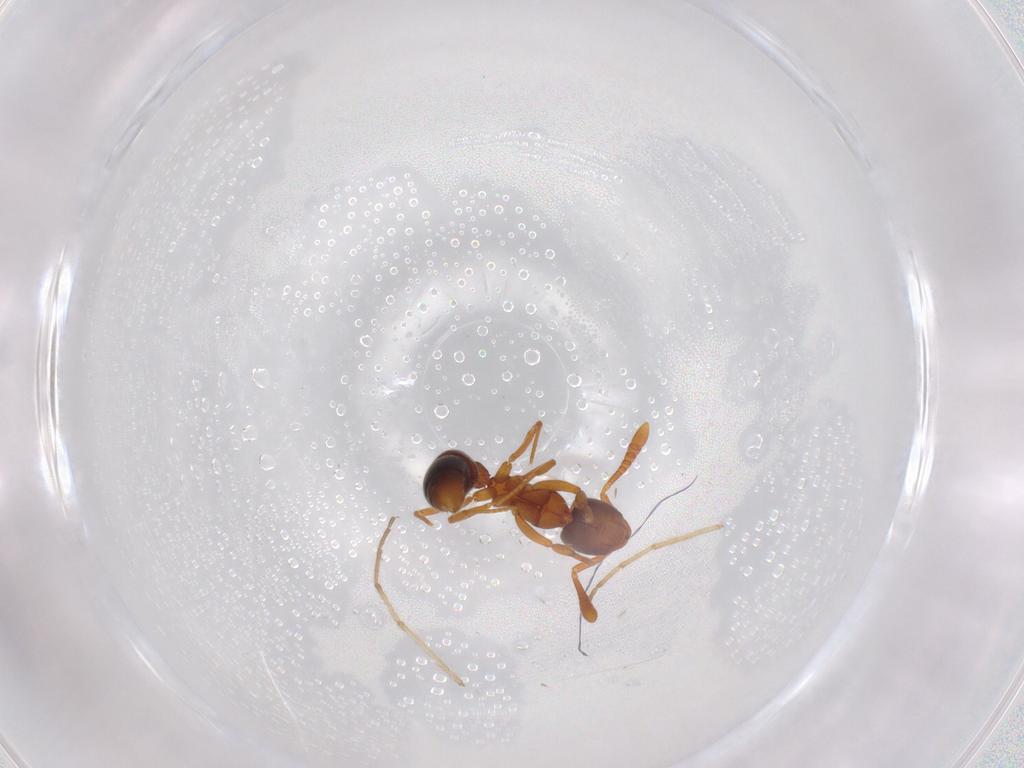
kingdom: Animalia
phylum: Arthropoda
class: Insecta
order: Hymenoptera
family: Formicidae
